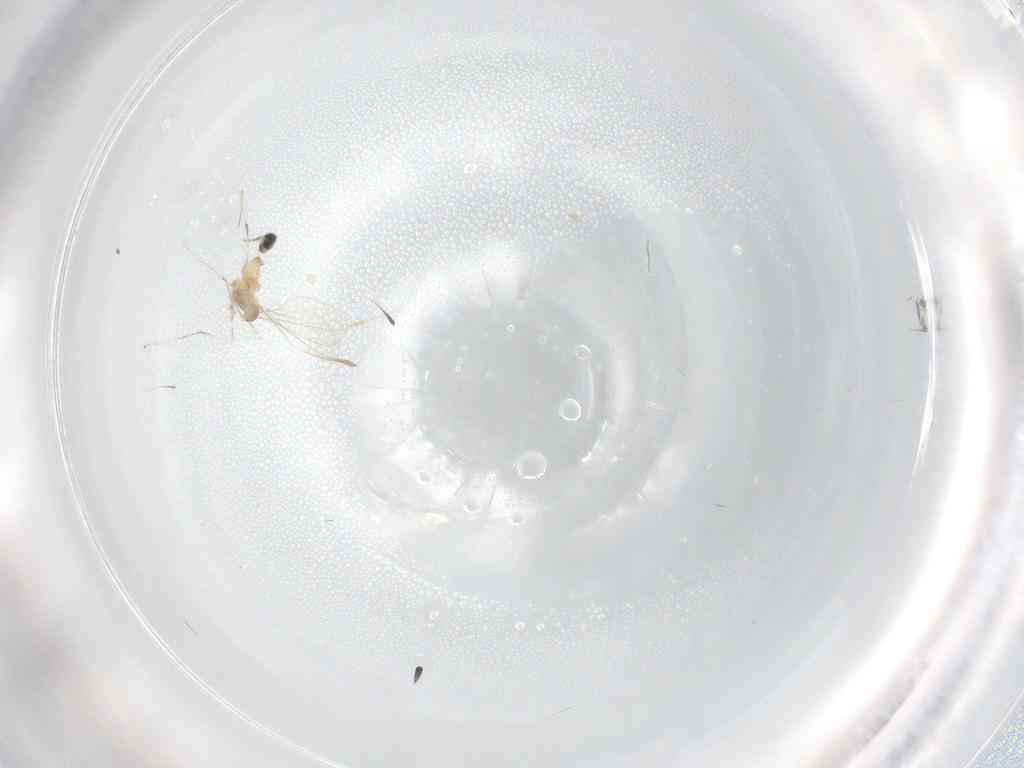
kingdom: Animalia
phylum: Arthropoda
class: Insecta
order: Diptera
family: Cecidomyiidae
